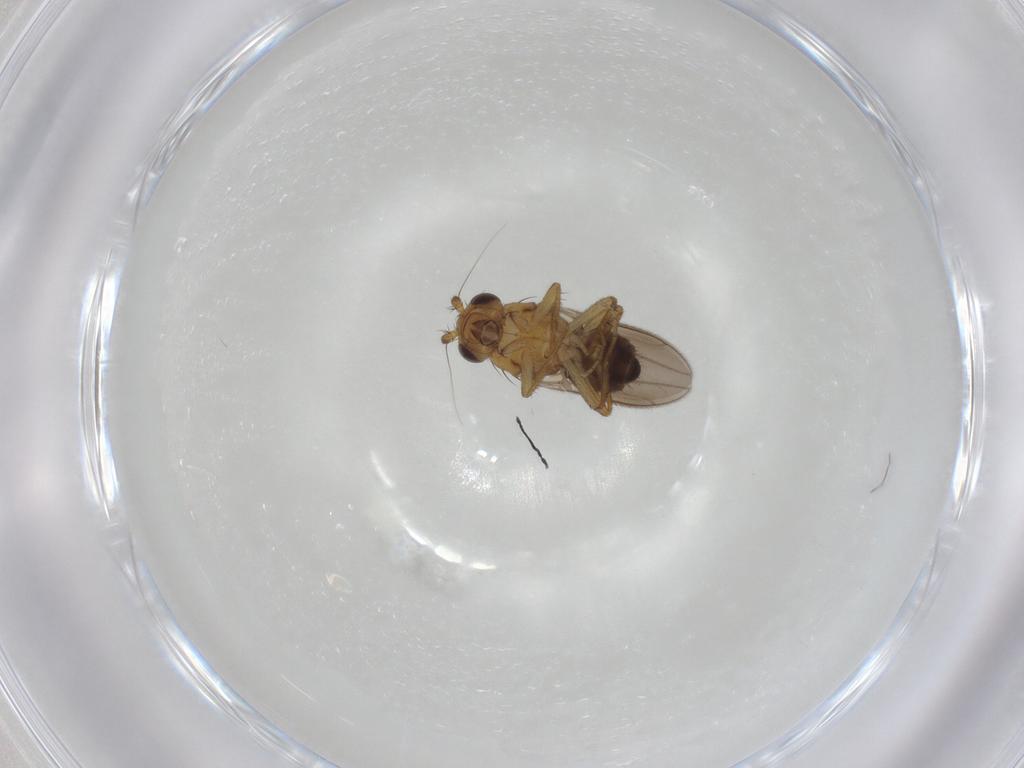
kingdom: Animalia
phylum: Arthropoda
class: Insecta
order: Diptera
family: Sphaeroceridae
